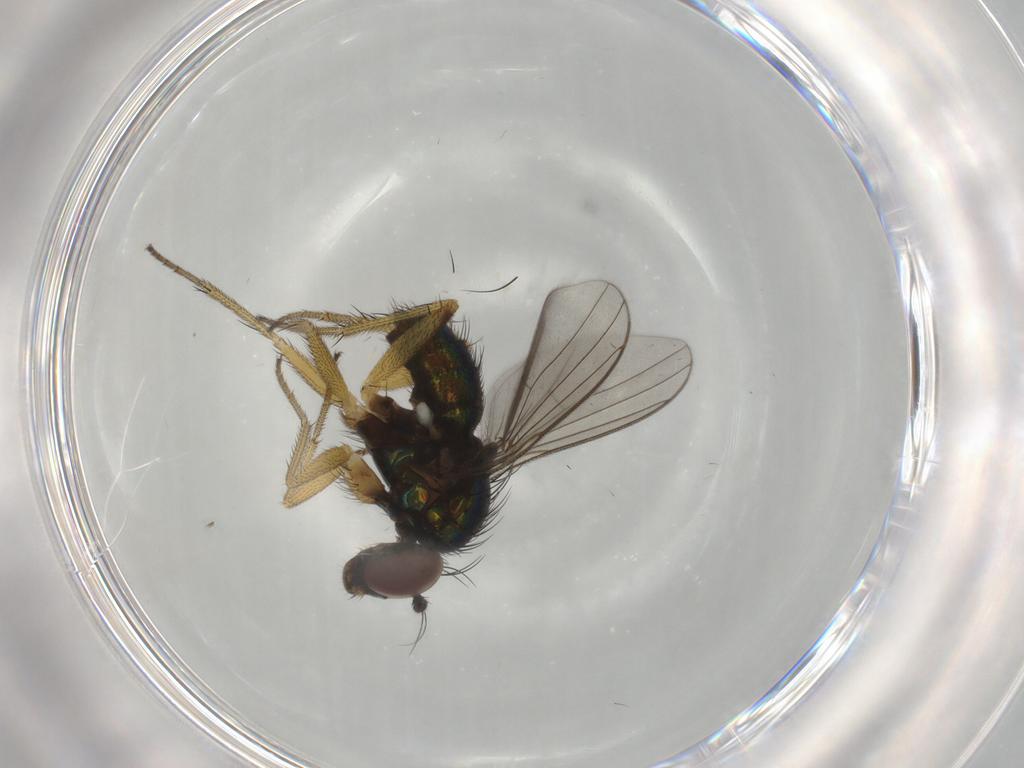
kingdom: Animalia
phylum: Arthropoda
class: Insecta
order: Diptera
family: Dolichopodidae
